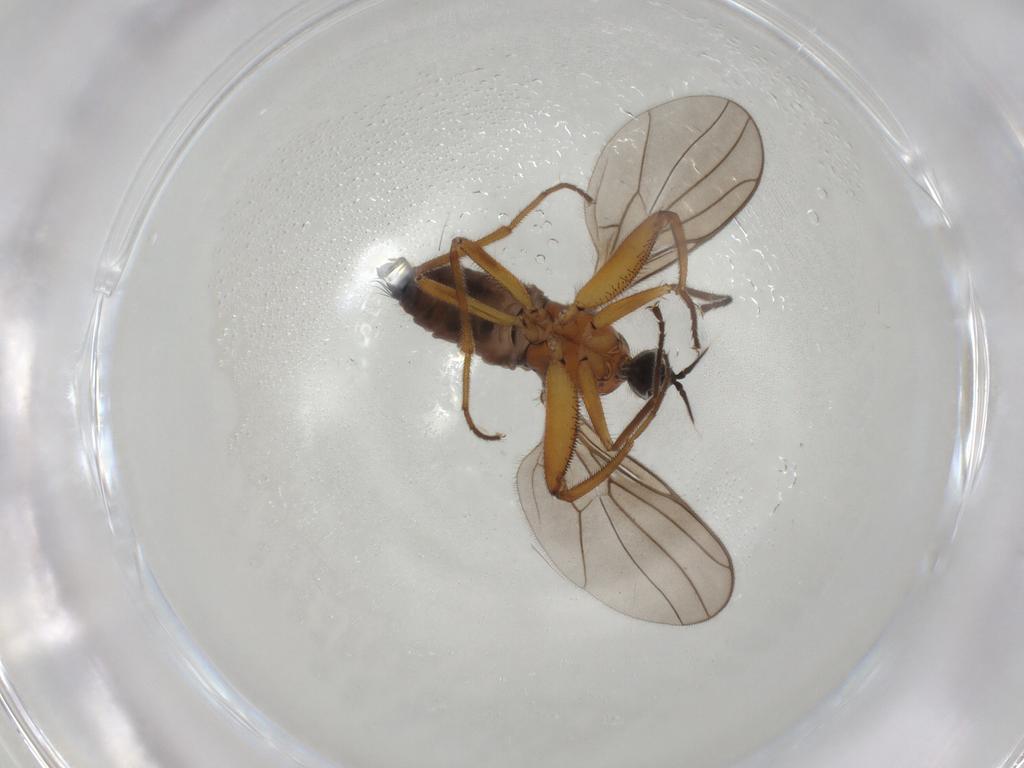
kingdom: Animalia
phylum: Arthropoda
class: Insecta
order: Diptera
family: Hybotidae
